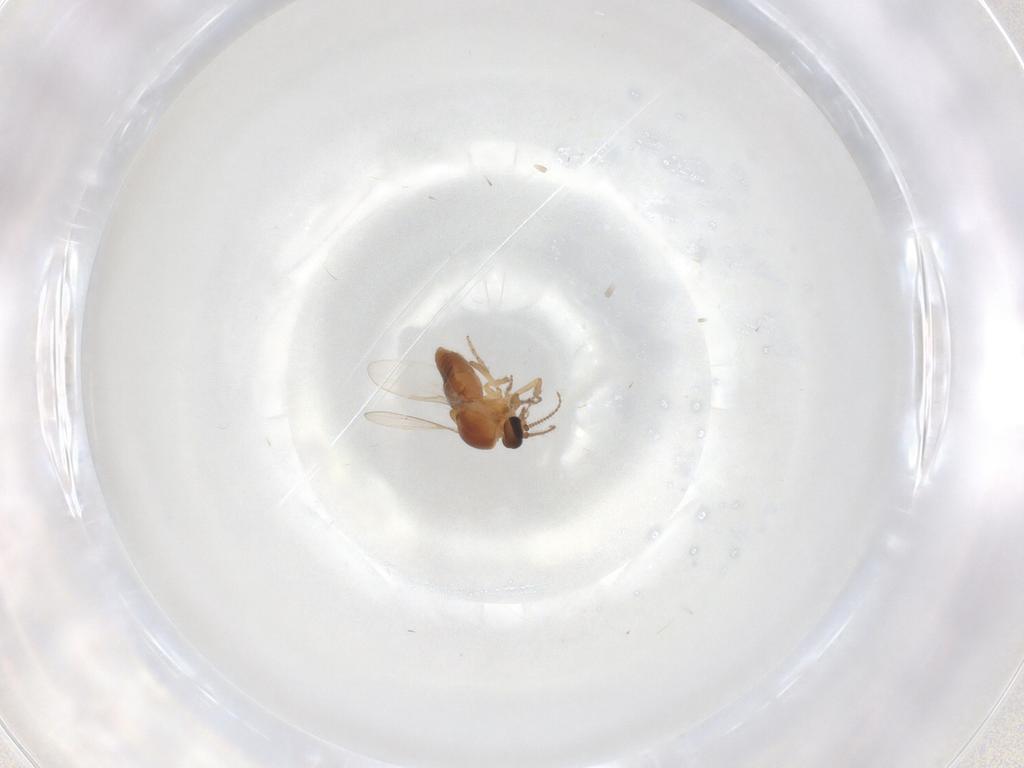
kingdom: Animalia
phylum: Arthropoda
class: Insecta
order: Diptera
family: Ceratopogonidae
